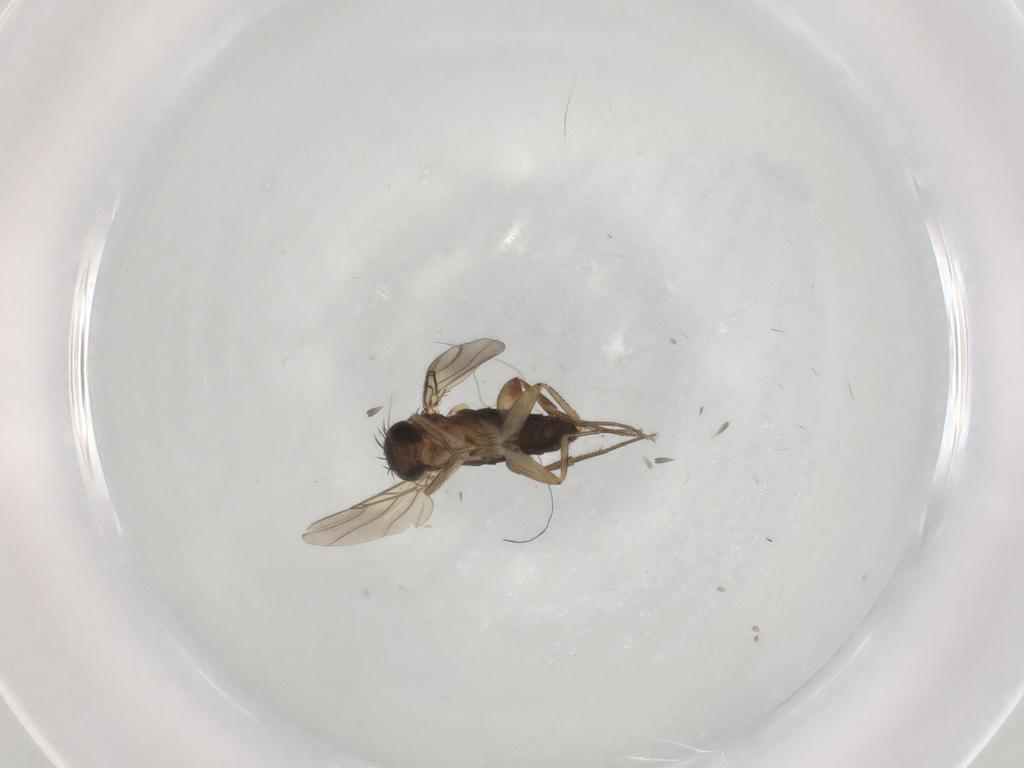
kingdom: Animalia
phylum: Arthropoda
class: Insecta
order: Diptera
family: Phoridae
